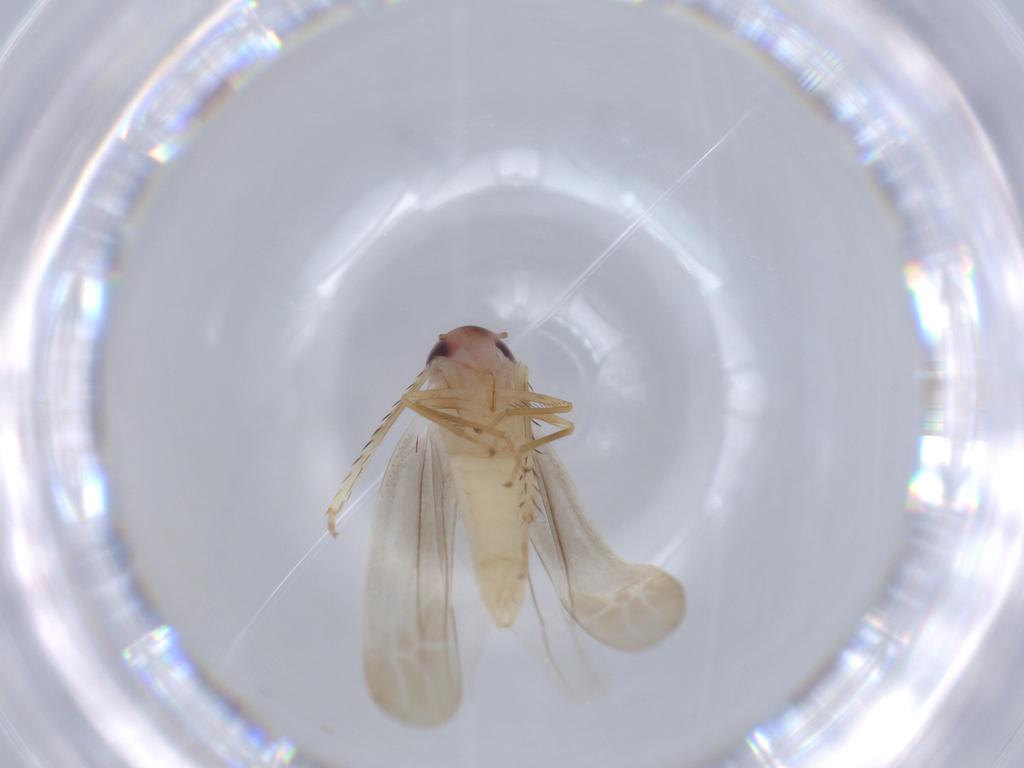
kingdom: Animalia
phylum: Arthropoda
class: Insecta
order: Hemiptera
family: Cicadellidae
